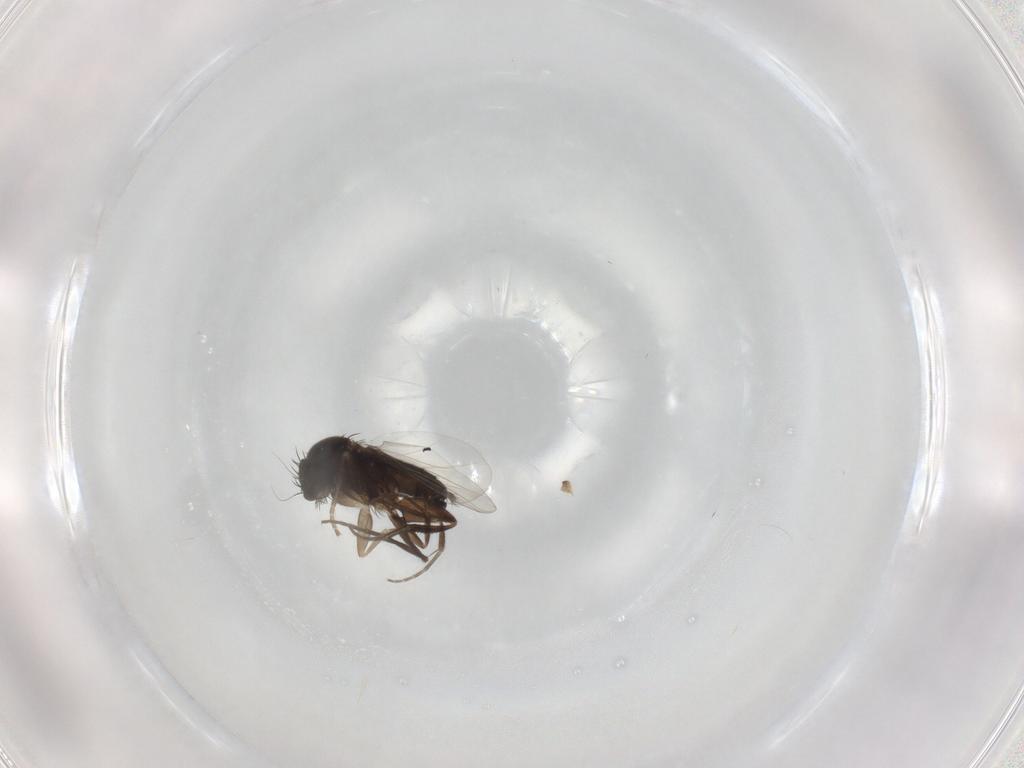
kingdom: Animalia
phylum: Arthropoda
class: Insecta
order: Diptera
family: Phoridae
